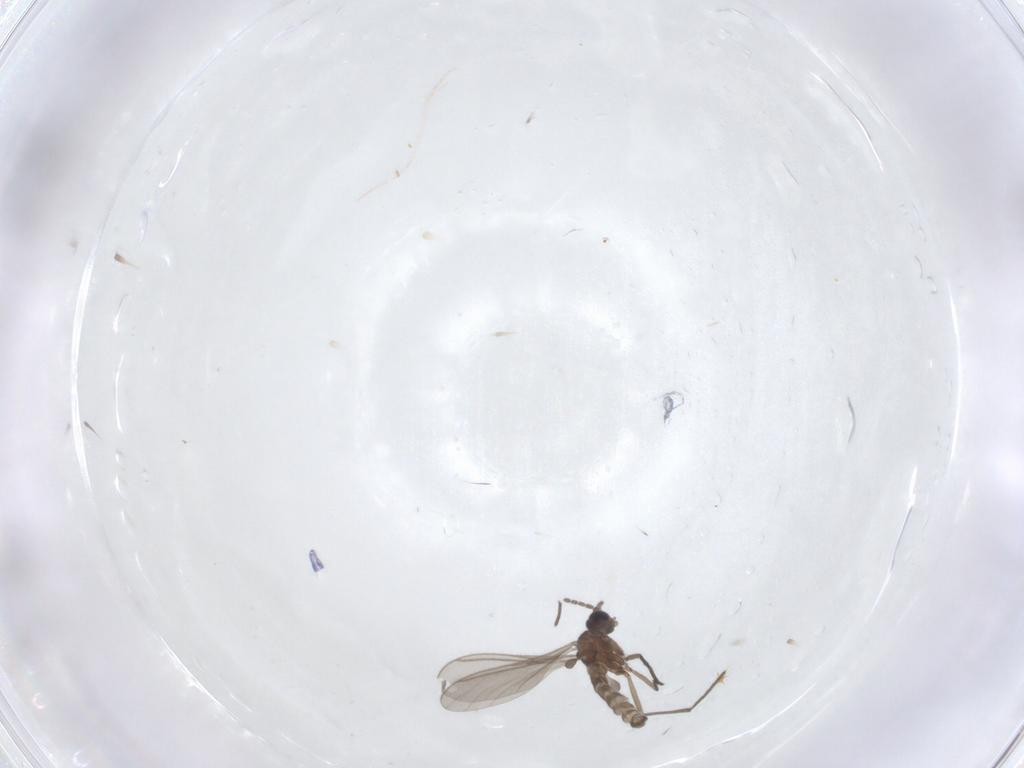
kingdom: Animalia
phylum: Arthropoda
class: Insecta
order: Diptera
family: Sciaridae
